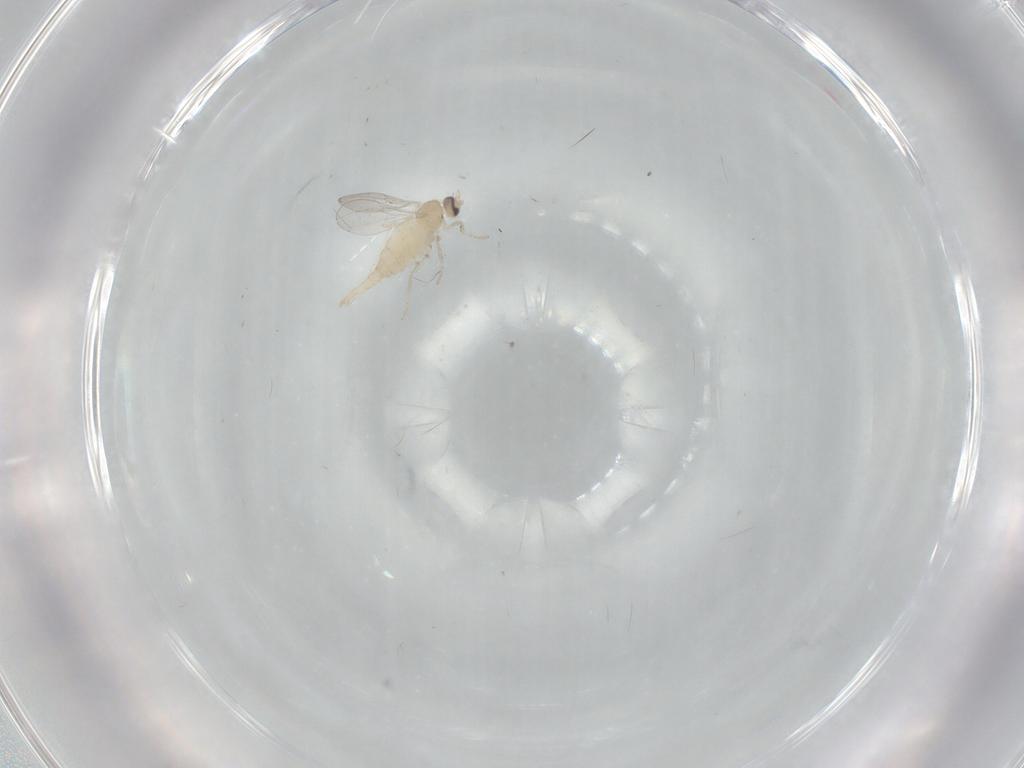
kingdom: Animalia
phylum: Arthropoda
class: Insecta
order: Diptera
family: Cecidomyiidae
